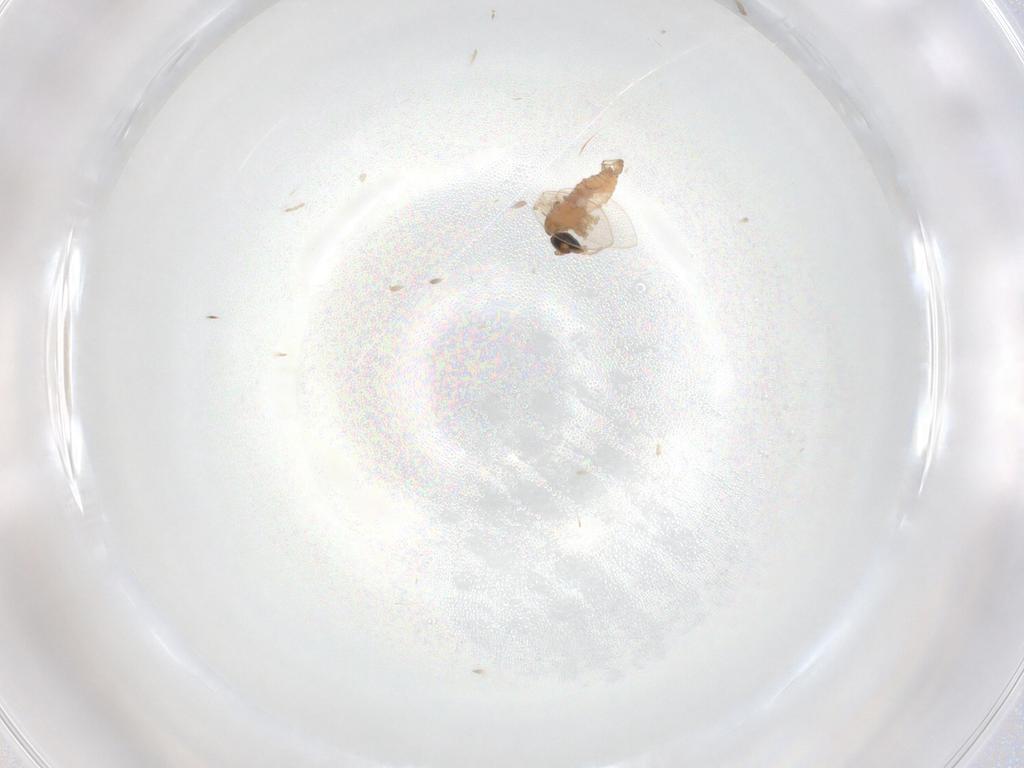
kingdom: Animalia
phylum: Arthropoda
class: Insecta
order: Diptera
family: Psychodidae
